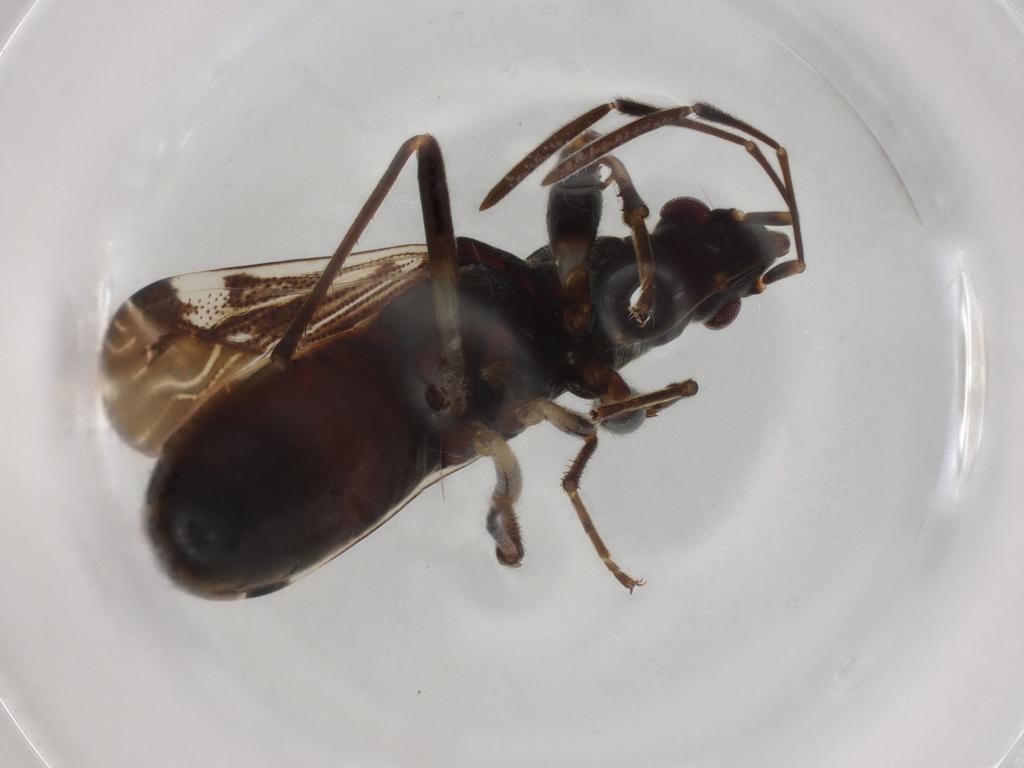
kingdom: Animalia
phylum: Arthropoda
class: Insecta
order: Hemiptera
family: Rhyparochromidae
